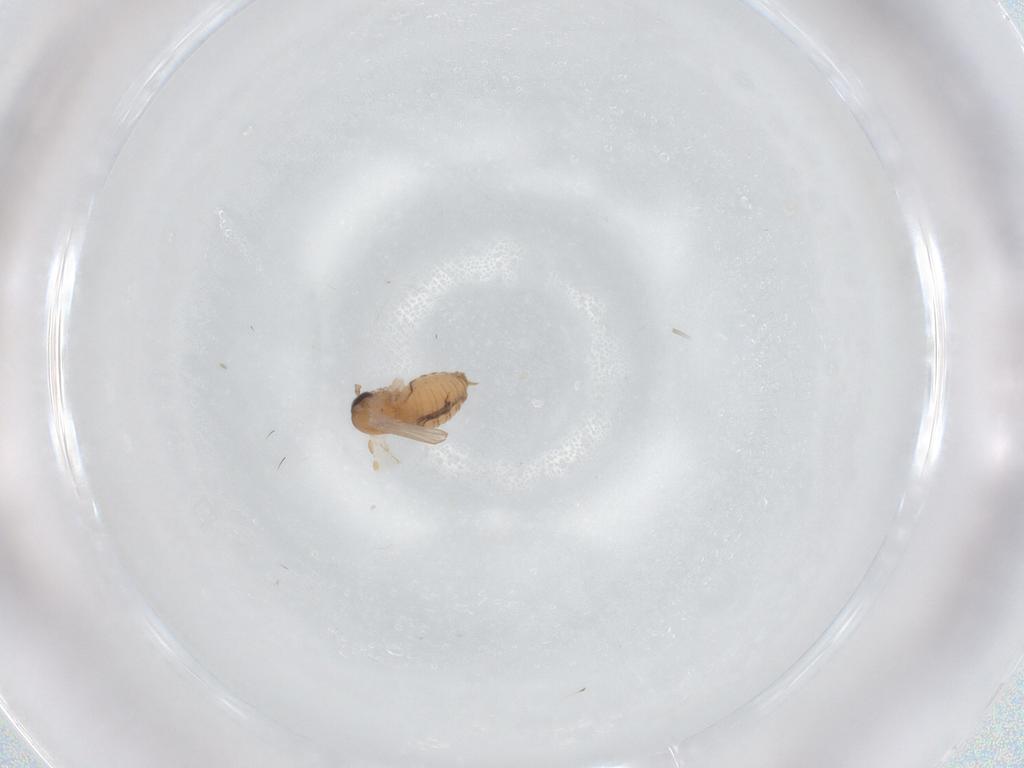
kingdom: Animalia
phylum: Arthropoda
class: Insecta
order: Diptera
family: Psychodidae
